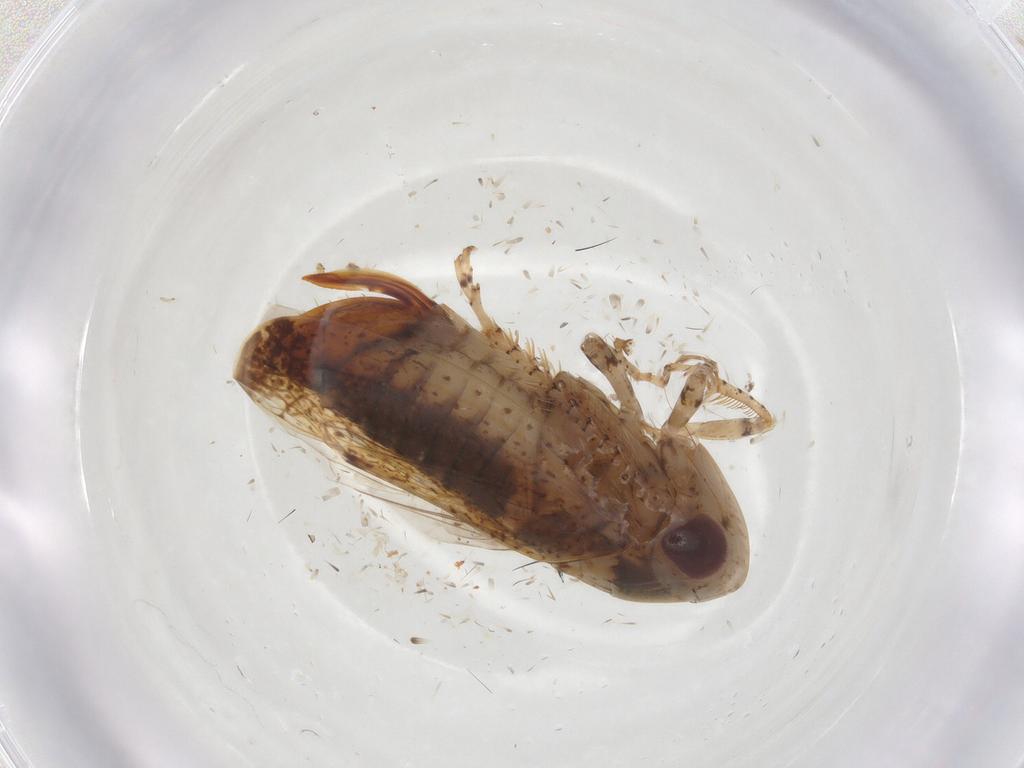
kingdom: Animalia
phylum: Arthropoda
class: Insecta
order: Hemiptera
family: Cicadellidae
